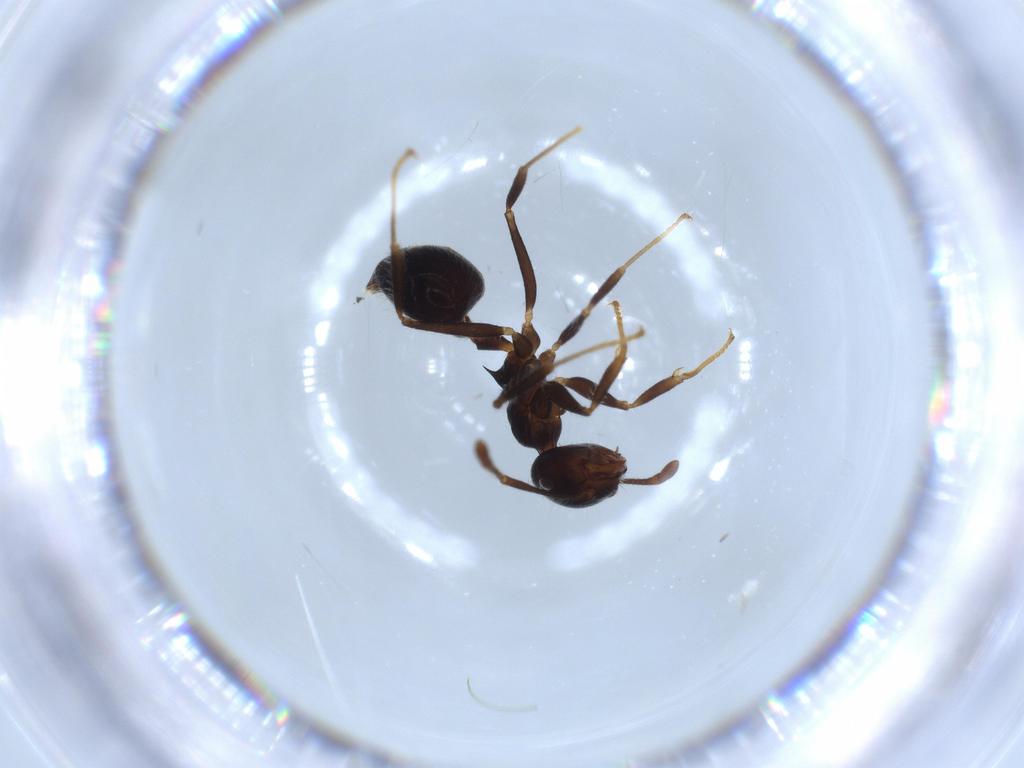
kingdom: Animalia
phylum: Arthropoda
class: Insecta
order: Hymenoptera
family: Formicidae
